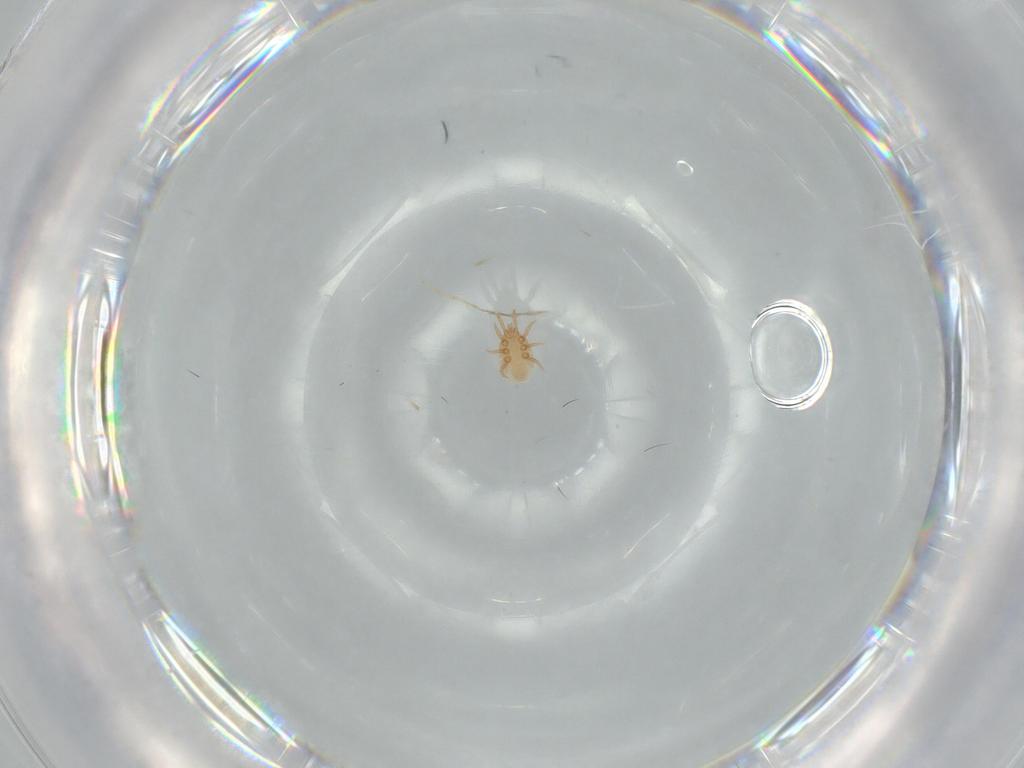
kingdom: Animalia
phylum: Arthropoda
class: Arachnida
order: Mesostigmata
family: Dinychidae
